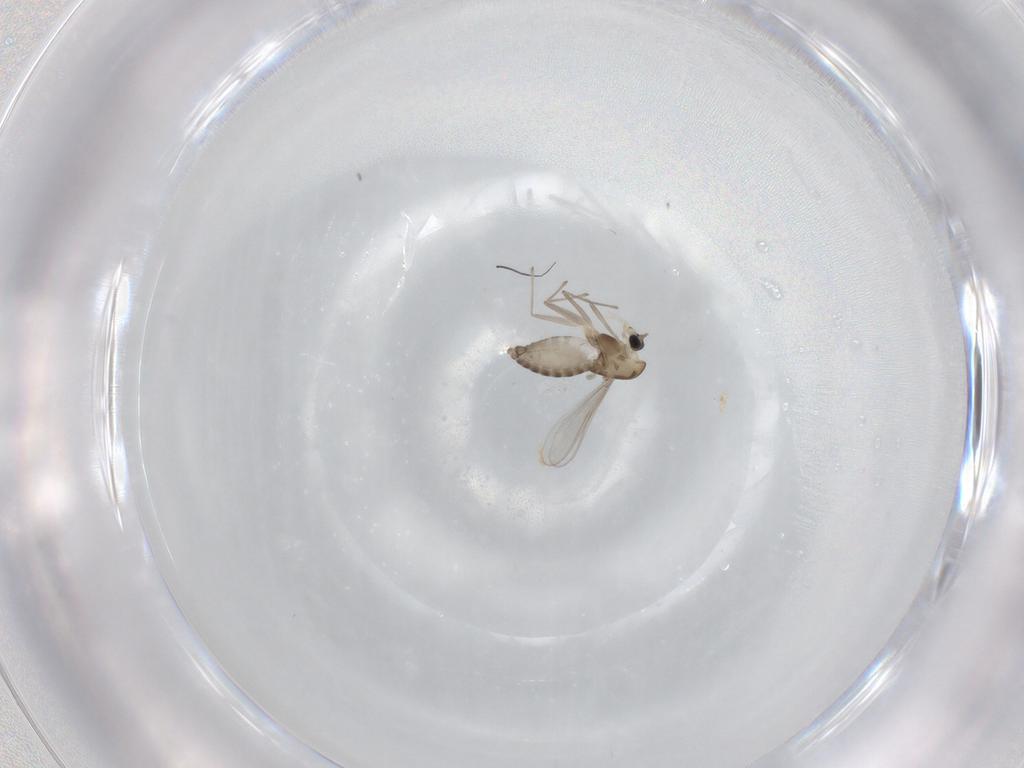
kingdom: Animalia
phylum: Arthropoda
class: Insecta
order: Diptera
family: Chironomidae
